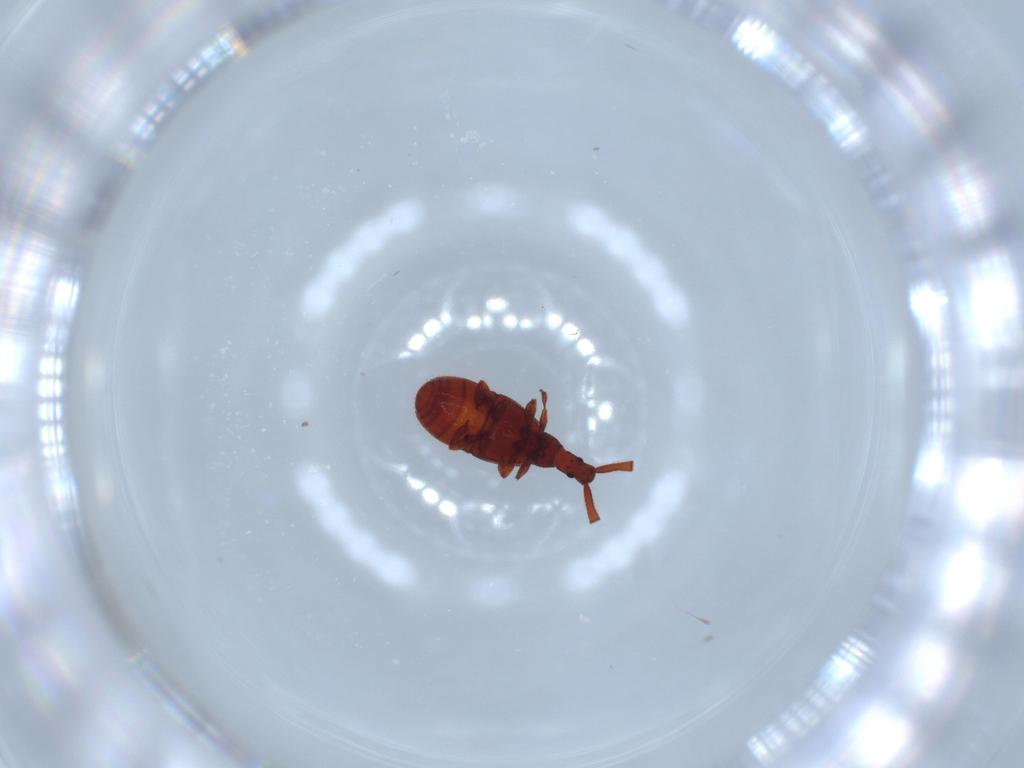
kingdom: Animalia
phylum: Arthropoda
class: Insecta
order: Coleoptera
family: Staphylinidae
